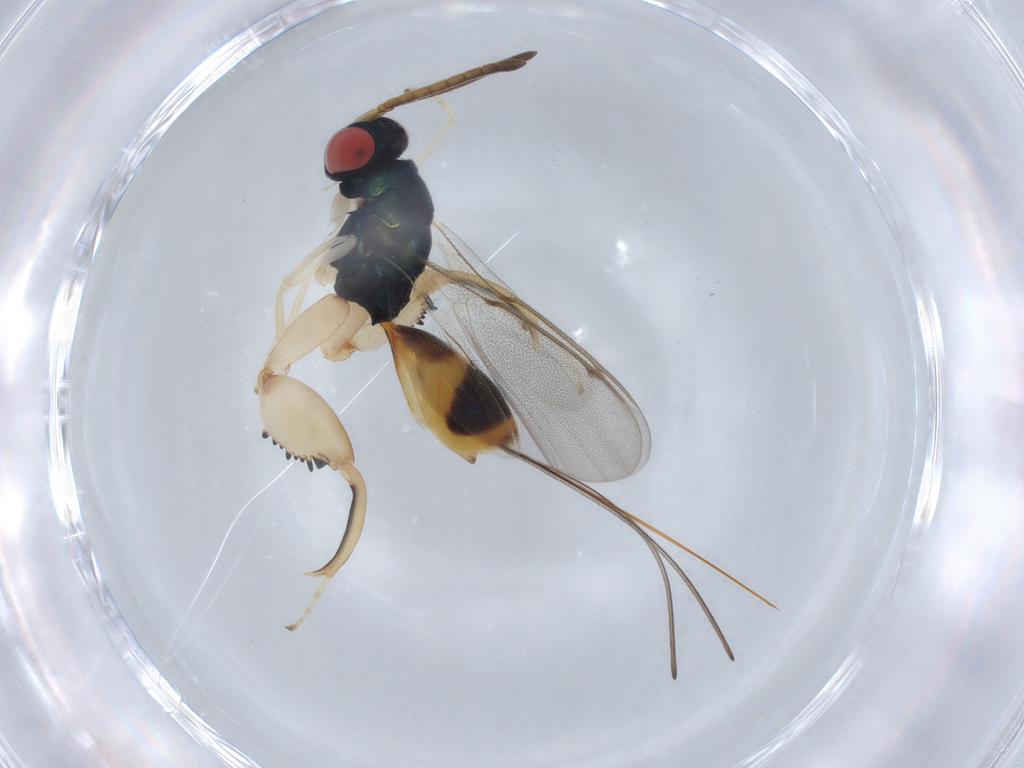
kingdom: Animalia
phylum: Arthropoda
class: Insecta
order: Hymenoptera
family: Torymidae
